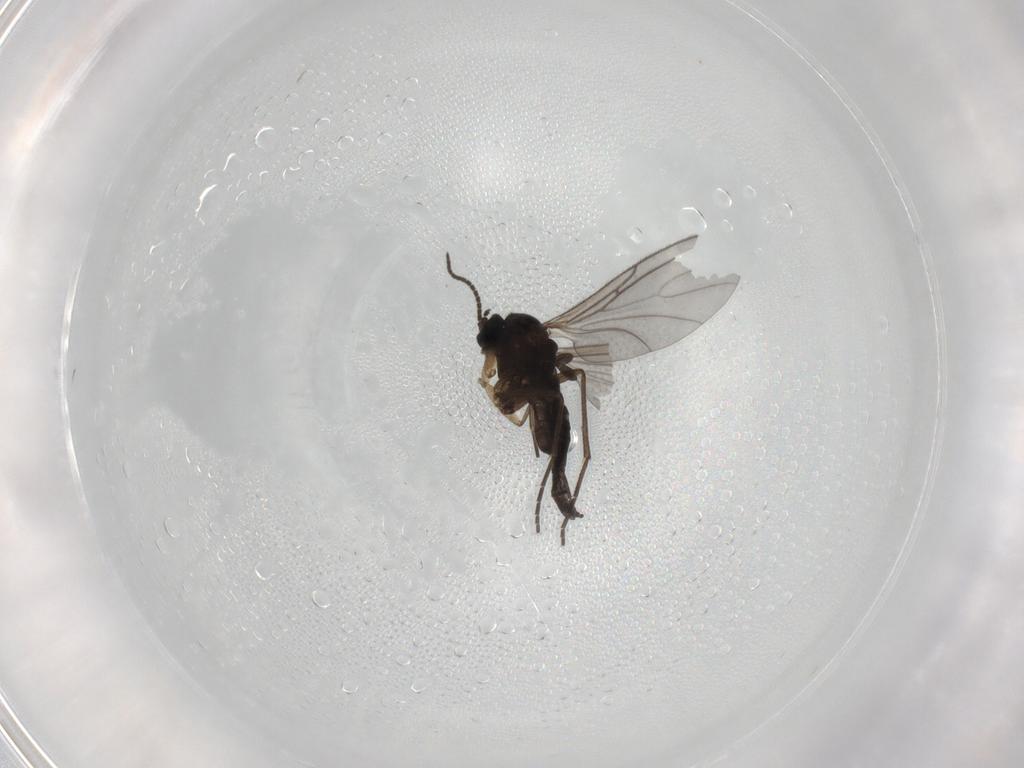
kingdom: Animalia
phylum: Arthropoda
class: Insecta
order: Diptera
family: Sciaridae
